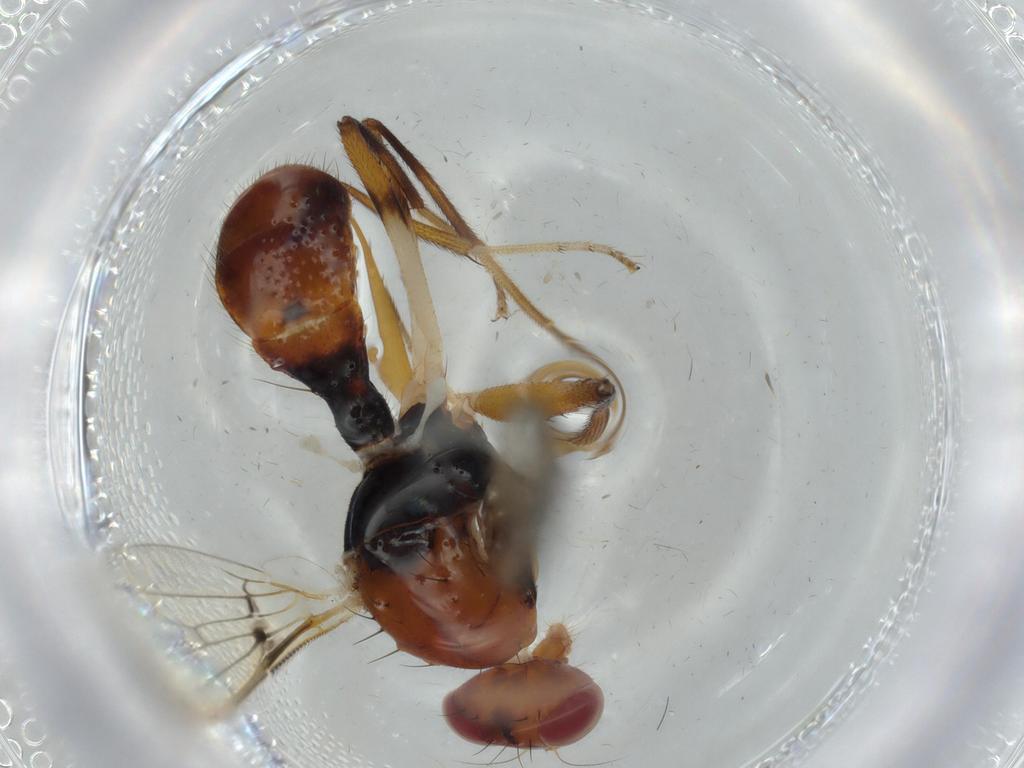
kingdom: Animalia
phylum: Arthropoda
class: Insecta
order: Diptera
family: Richardiidae
